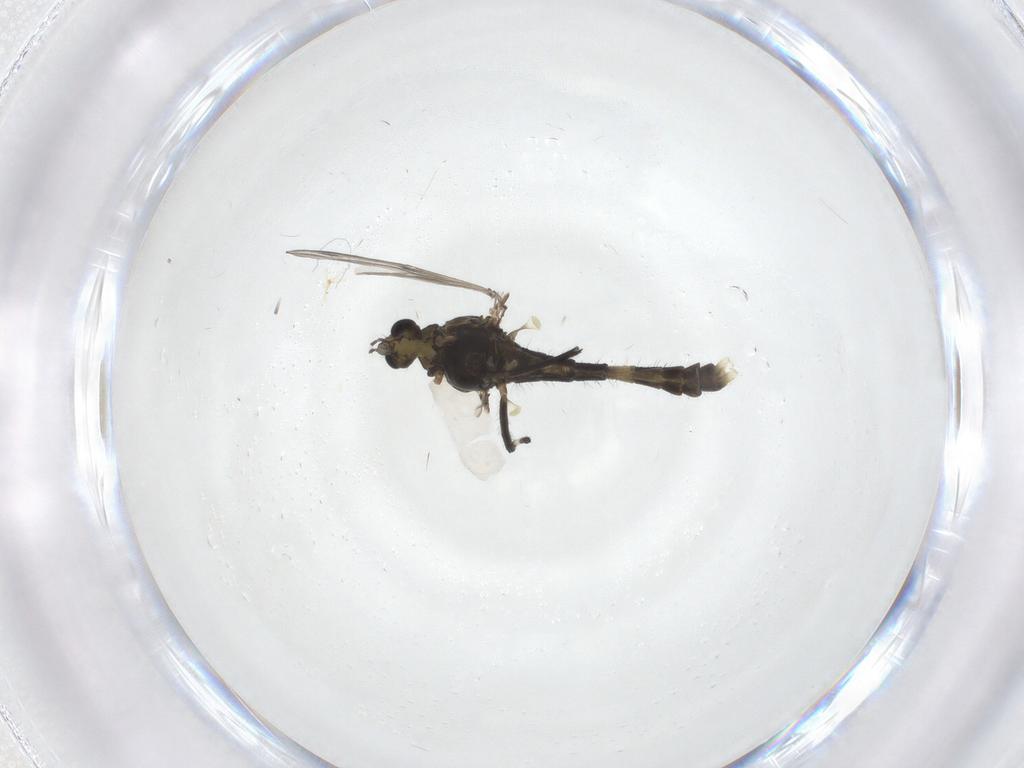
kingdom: Animalia
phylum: Arthropoda
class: Insecta
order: Diptera
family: Chironomidae
